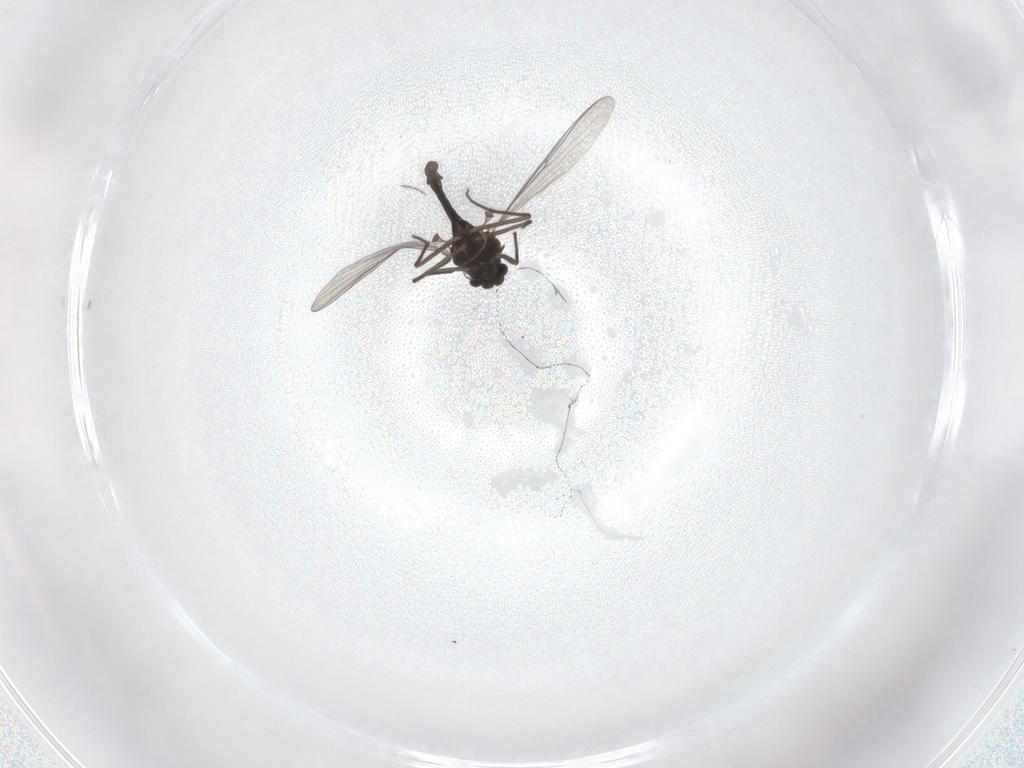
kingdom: Animalia
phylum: Arthropoda
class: Insecta
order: Diptera
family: Chironomidae
